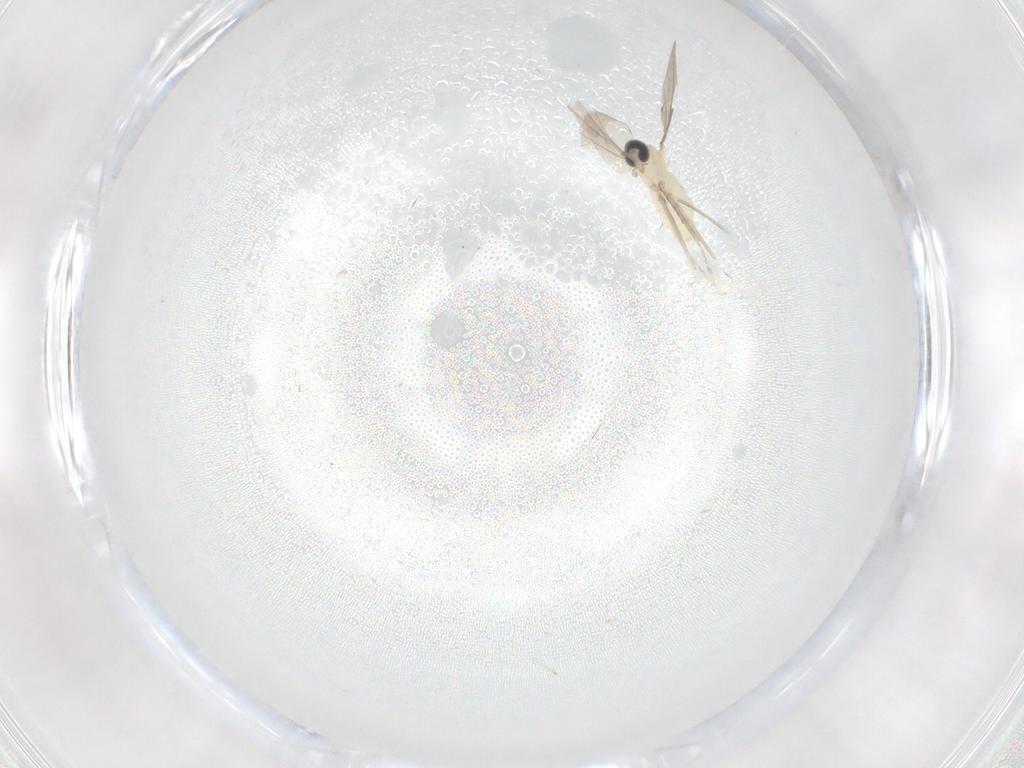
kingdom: Animalia
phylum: Arthropoda
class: Insecta
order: Diptera
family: Cecidomyiidae
